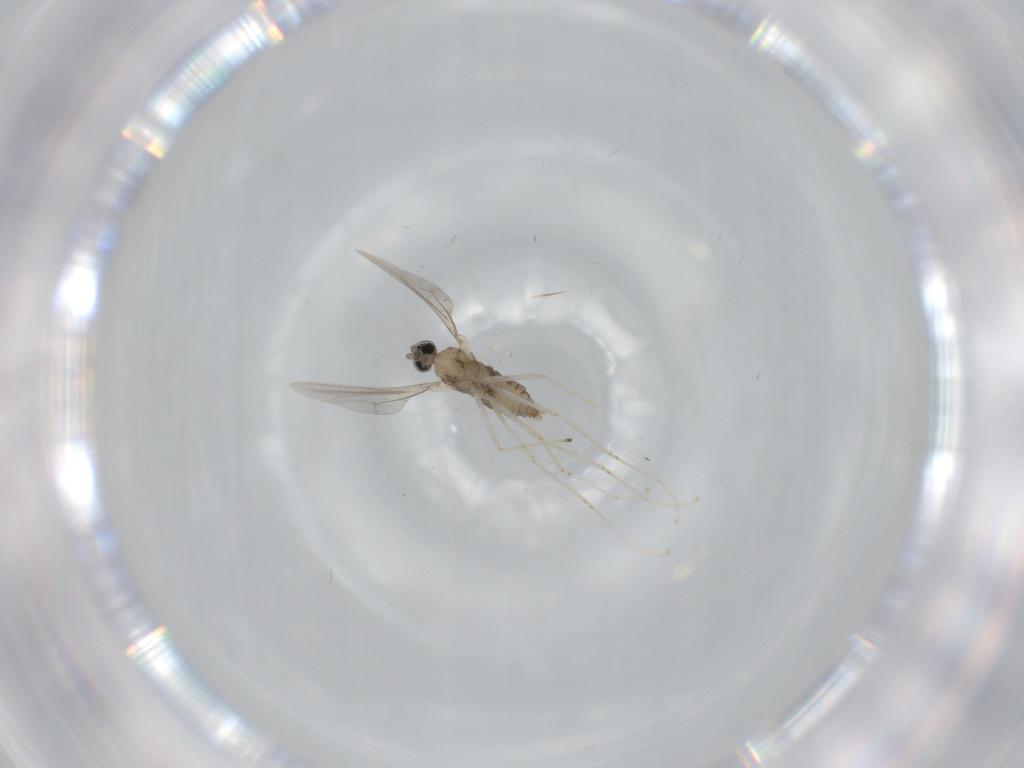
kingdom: Animalia
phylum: Arthropoda
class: Insecta
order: Diptera
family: Cecidomyiidae
